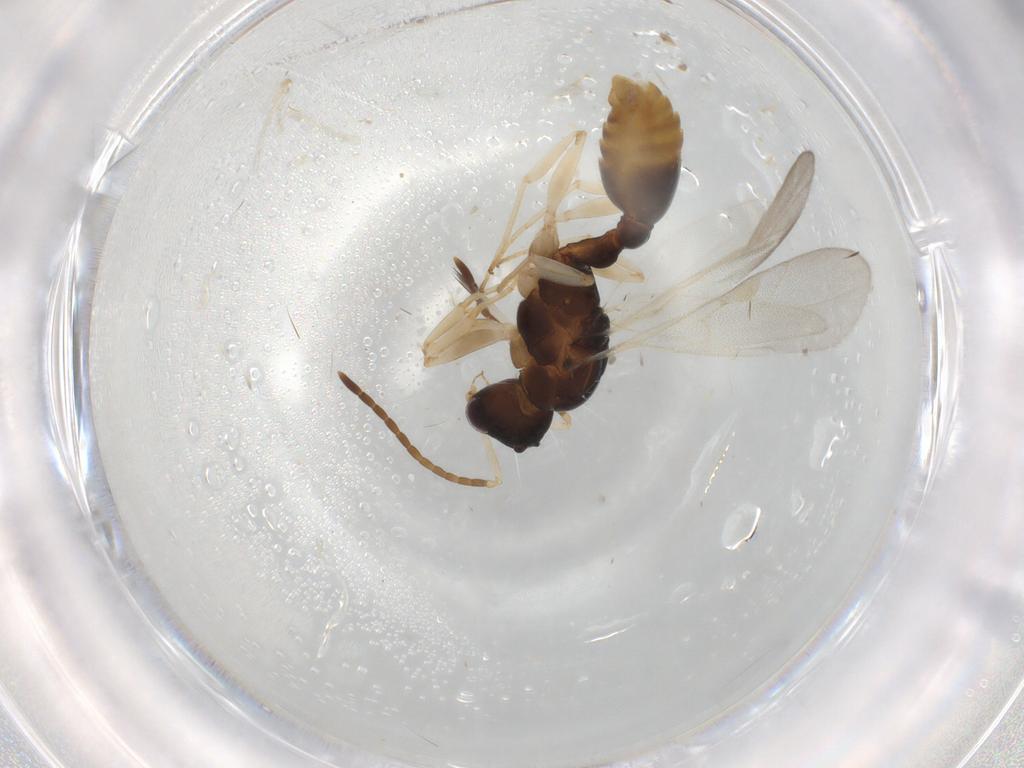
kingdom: Animalia
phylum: Arthropoda
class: Insecta
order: Hymenoptera
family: Formicidae
